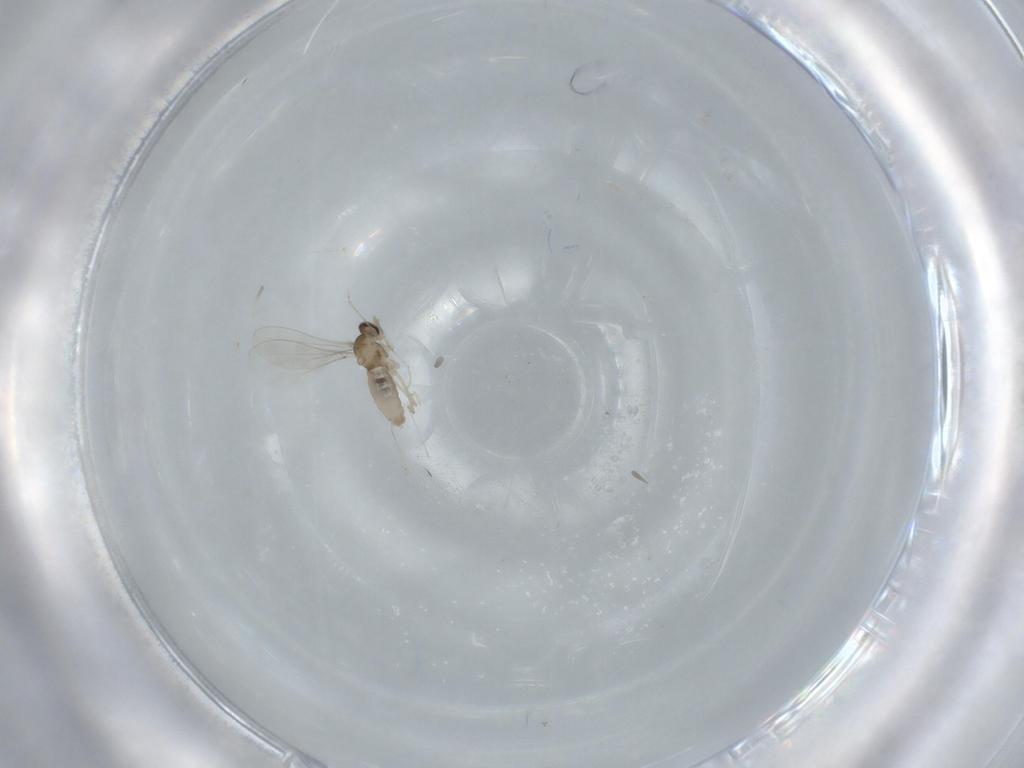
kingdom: Animalia
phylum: Arthropoda
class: Insecta
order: Diptera
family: Cecidomyiidae
